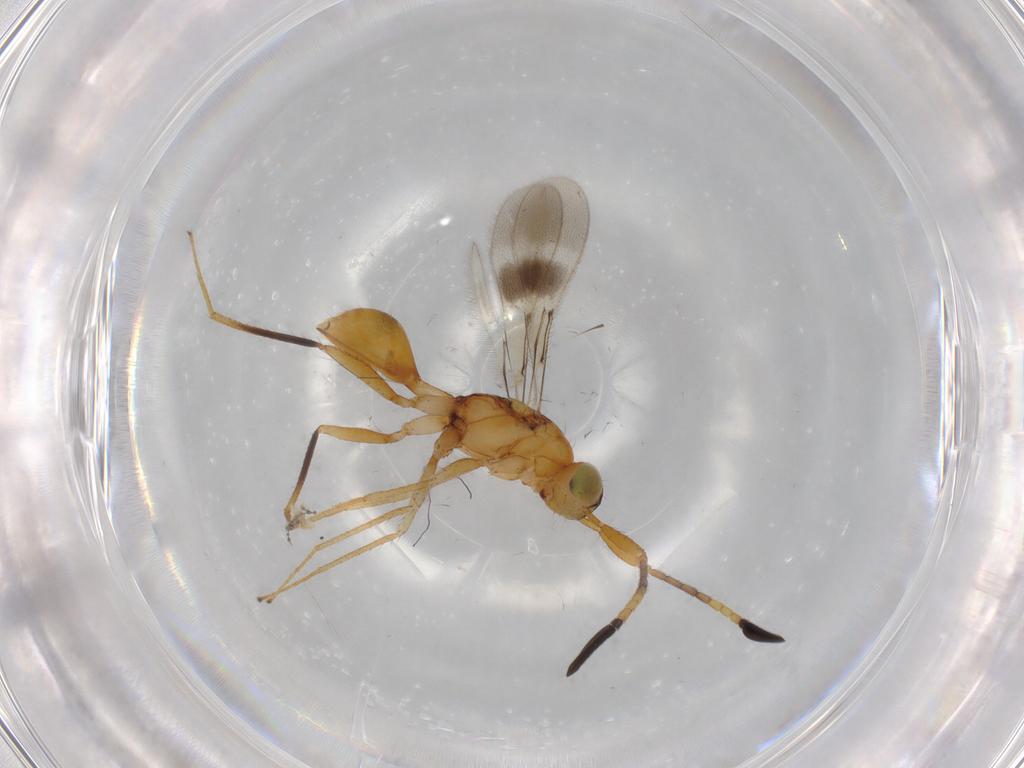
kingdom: Animalia
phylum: Arthropoda
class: Insecta
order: Hymenoptera
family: Mymaridae
